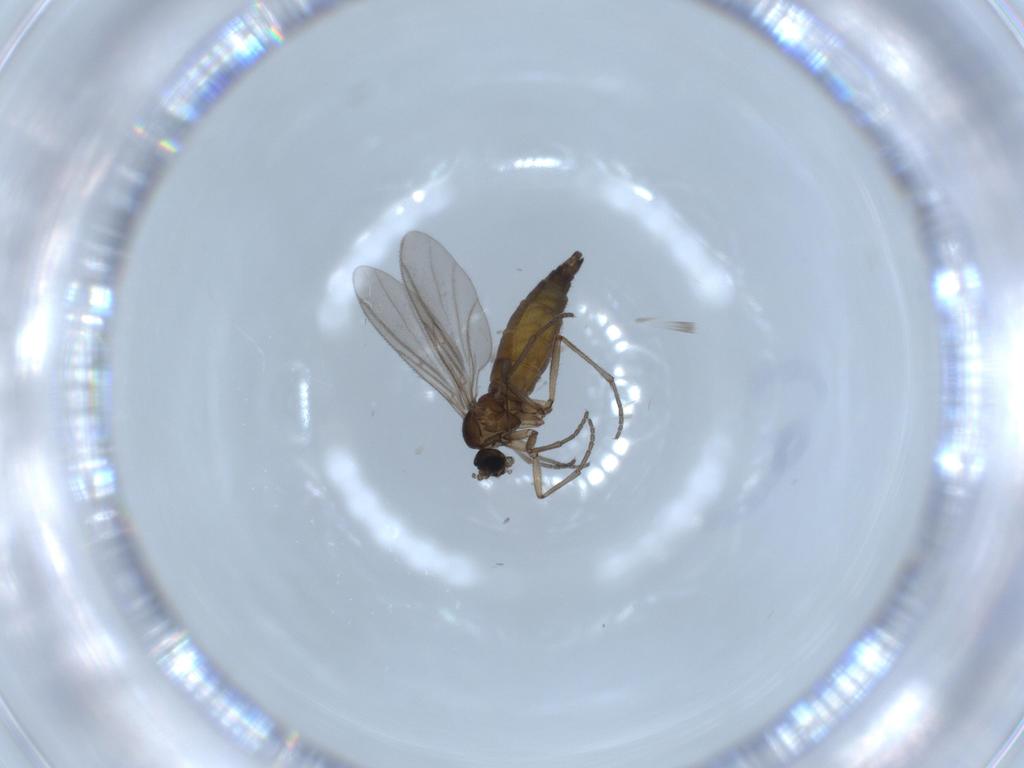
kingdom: Animalia
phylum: Arthropoda
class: Insecta
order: Diptera
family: Sciaridae
